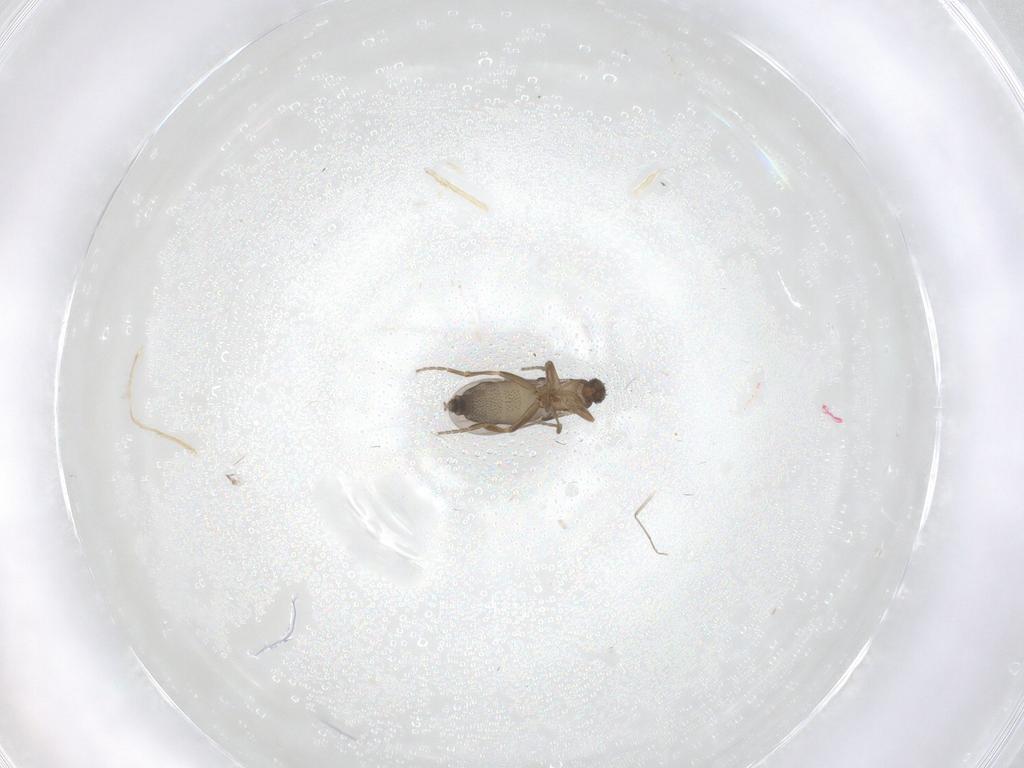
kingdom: Animalia
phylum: Arthropoda
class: Insecta
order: Diptera
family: Phoridae
